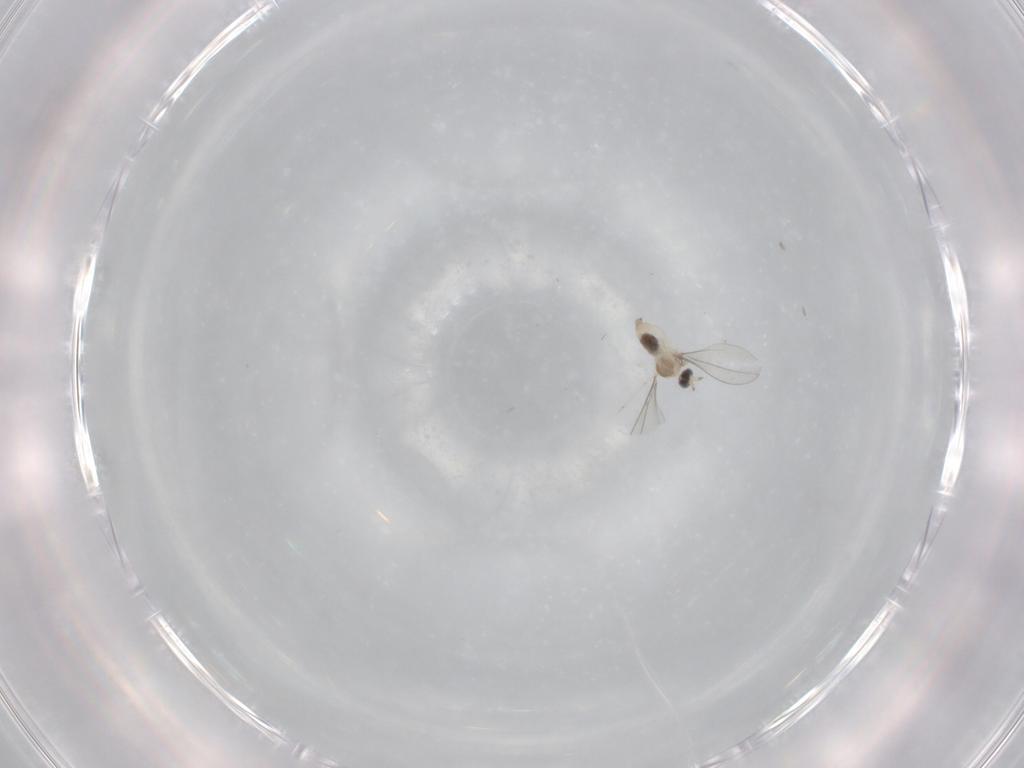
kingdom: Animalia
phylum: Arthropoda
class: Insecta
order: Diptera
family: Cecidomyiidae
